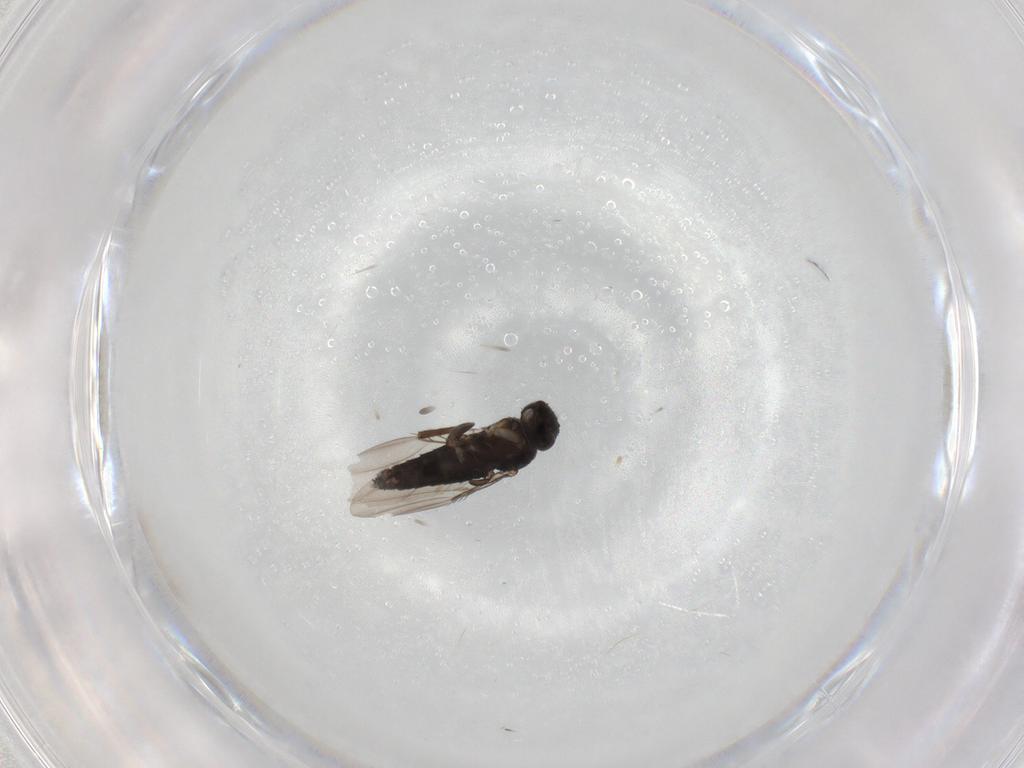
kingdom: Animalia
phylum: Arthropoda
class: Insecta
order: Diptera
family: Phoridae
